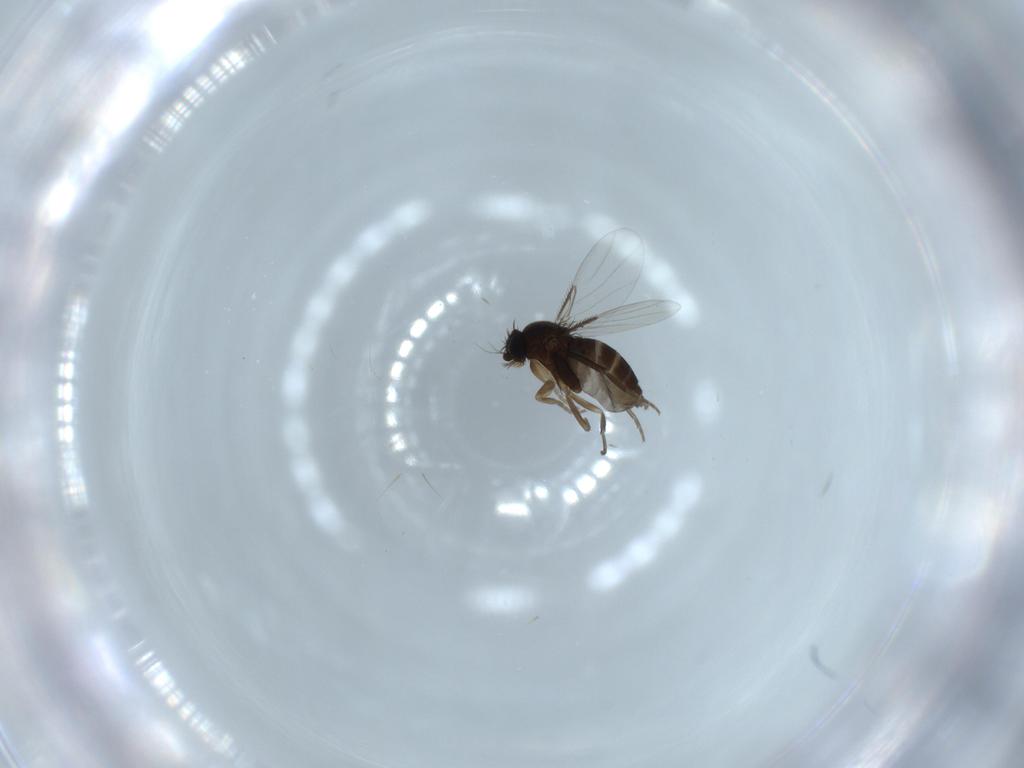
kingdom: Animalia
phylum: Arthropoda
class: Insecta
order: Diptera
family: Phoridae
